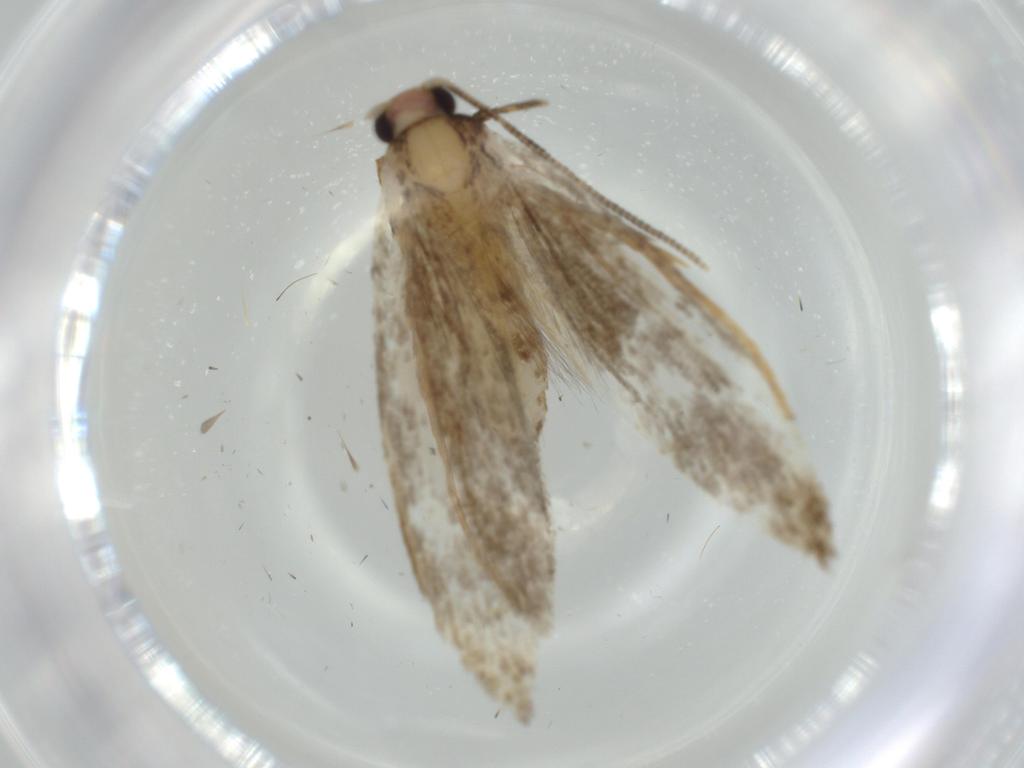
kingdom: Animalia
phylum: Arthropoda
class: Insecta
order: Lepidoptera
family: Tineidae
